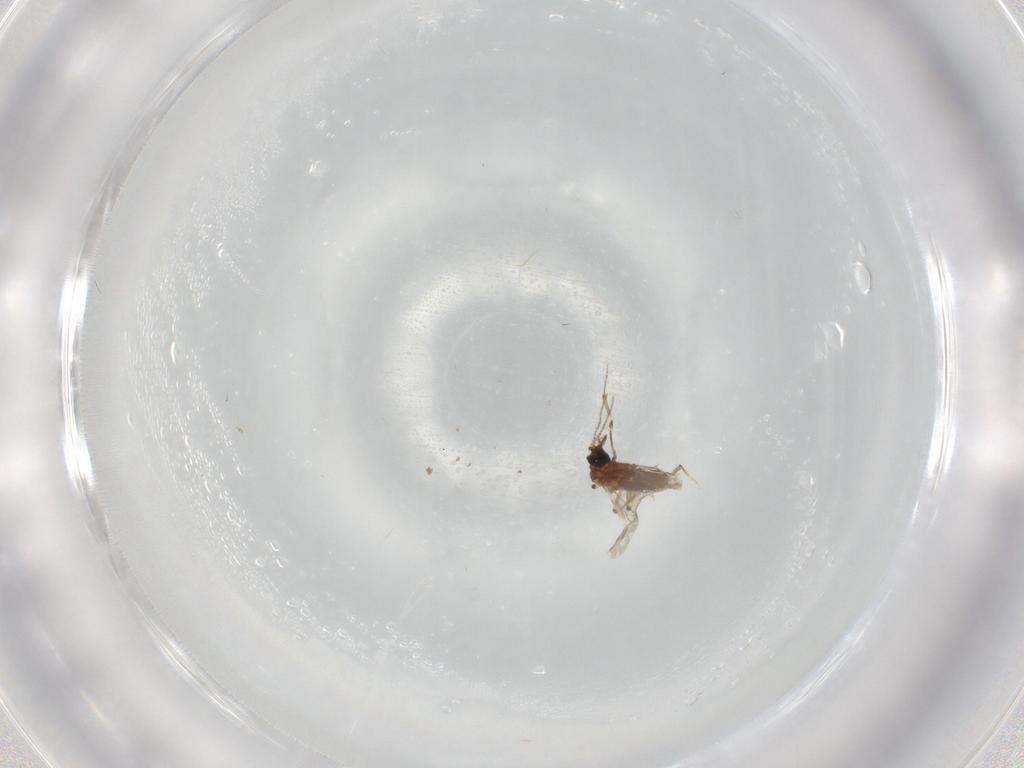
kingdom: Animalia
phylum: Arthropoda
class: Insecta
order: Diptera
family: Ceratopogonidae
